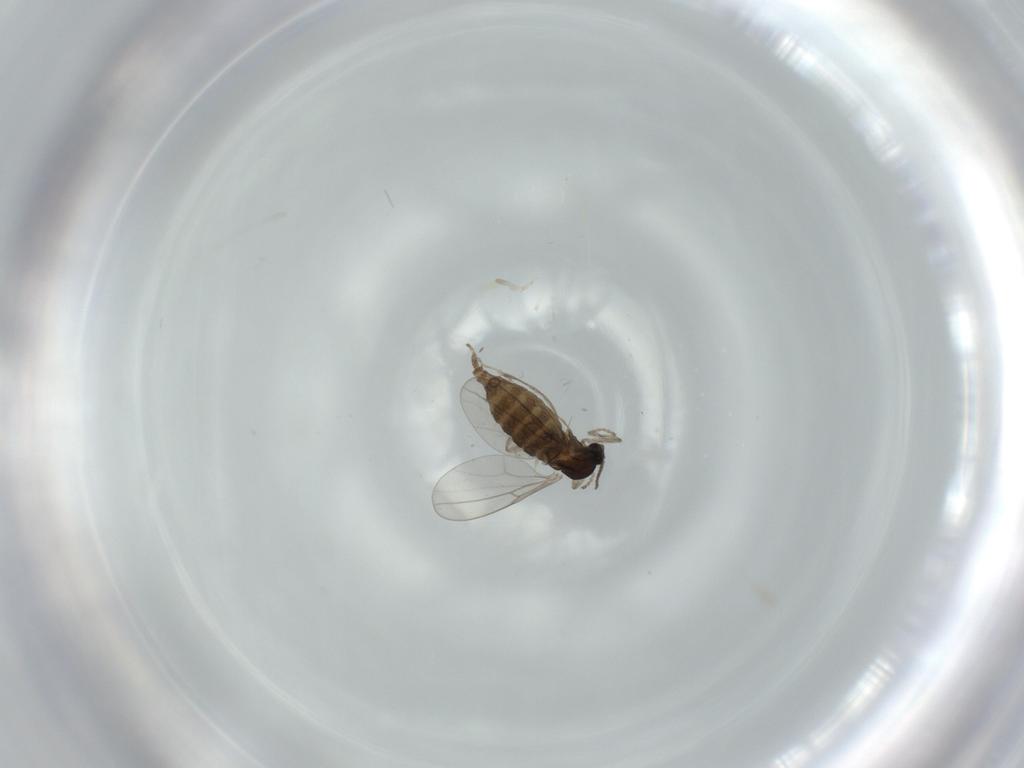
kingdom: Animalia
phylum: Arthropoda
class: Insecta
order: Diptera
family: Cecidomyiidae
